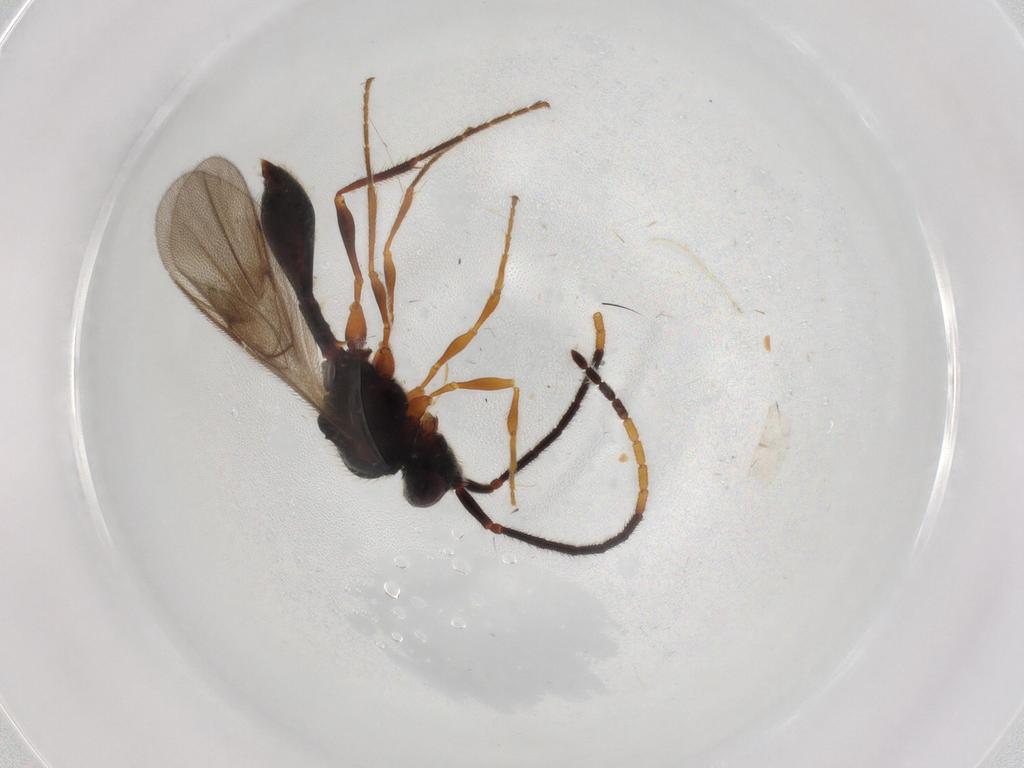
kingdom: Animalia
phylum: Arthropoda
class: Insecta
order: Hymenoptera
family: Diapriidae
